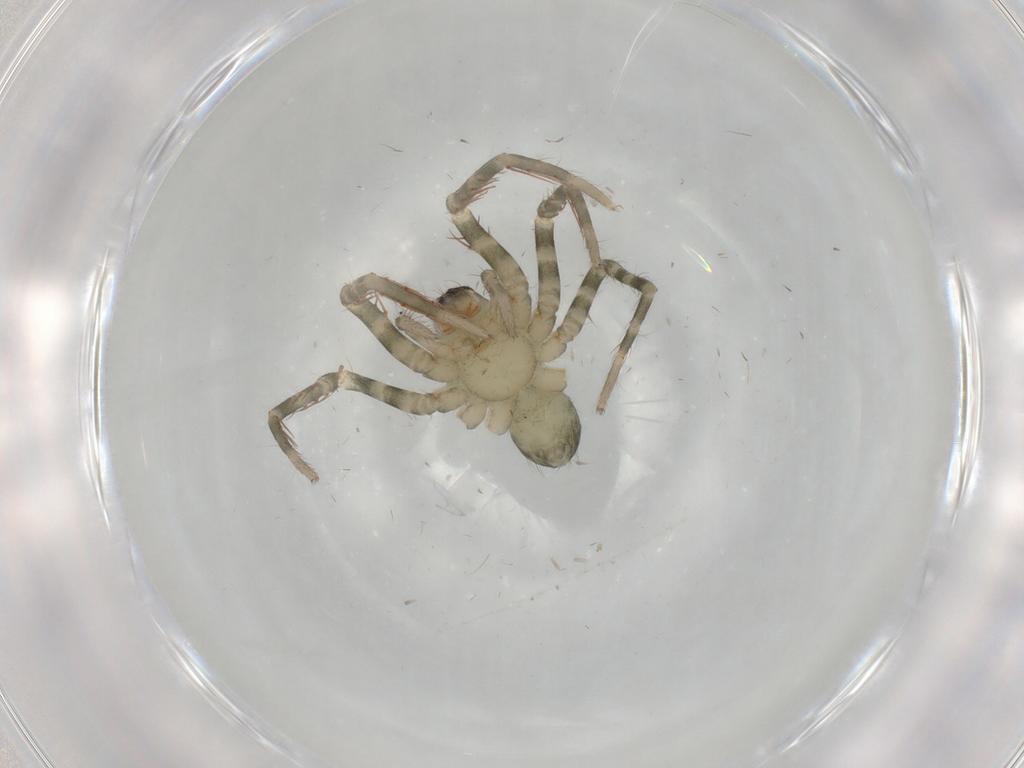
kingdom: Animalia
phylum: Arthropoda
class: Arachnida
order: Araneae
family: Ctenidae
